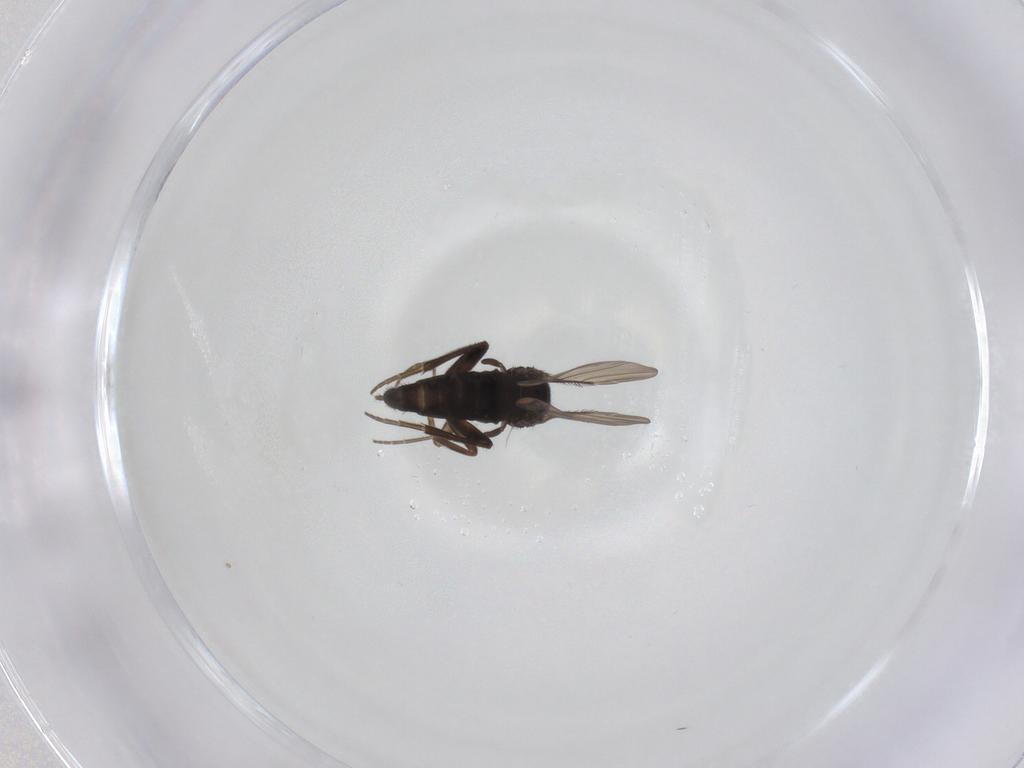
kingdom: Animalia
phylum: Arthropoda
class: Insecta
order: Diptera
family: Phoridae
